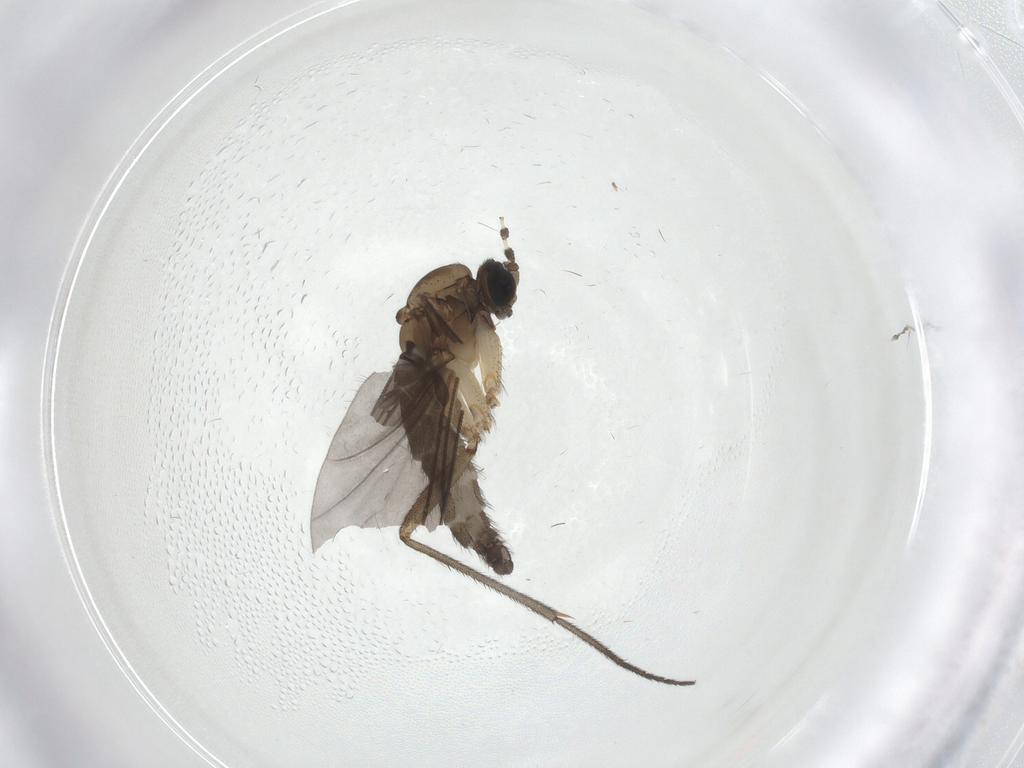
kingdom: Animalia
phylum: Arthropoda
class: Insecta
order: Diptera
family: Sciaridae
